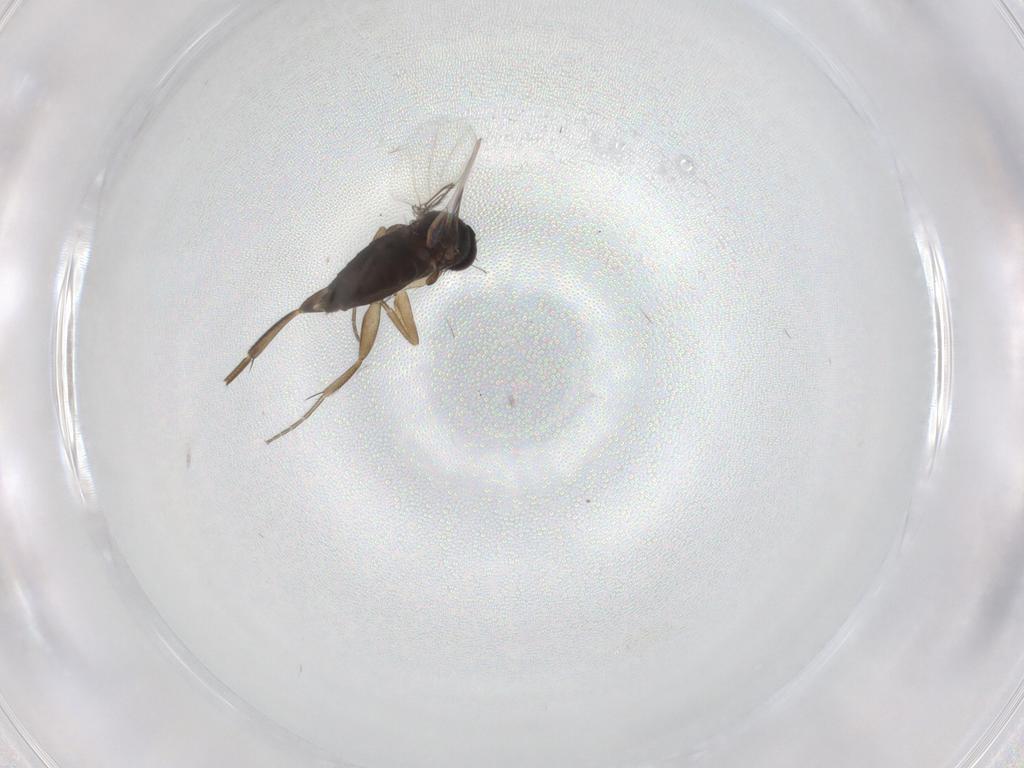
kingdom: Animalia
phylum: Arthropoda
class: Insecta
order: Diptera
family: Phoridae
